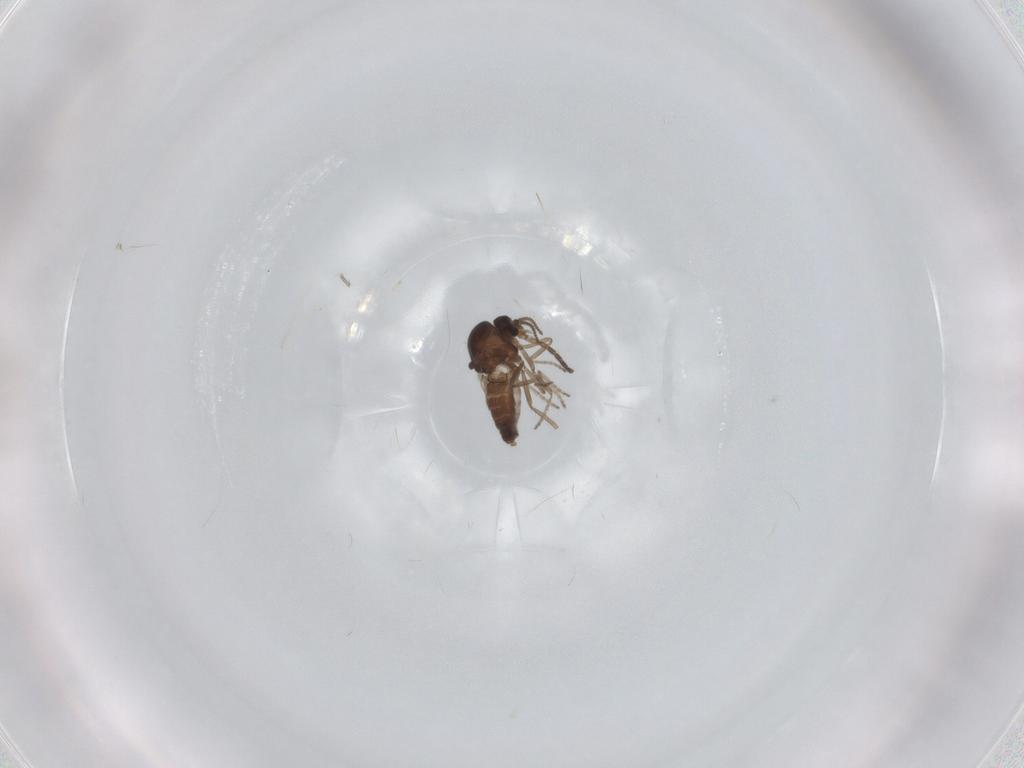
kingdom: Animalia
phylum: Arthropoda
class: Insecta
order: Diptera
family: Ceratopogonidae
